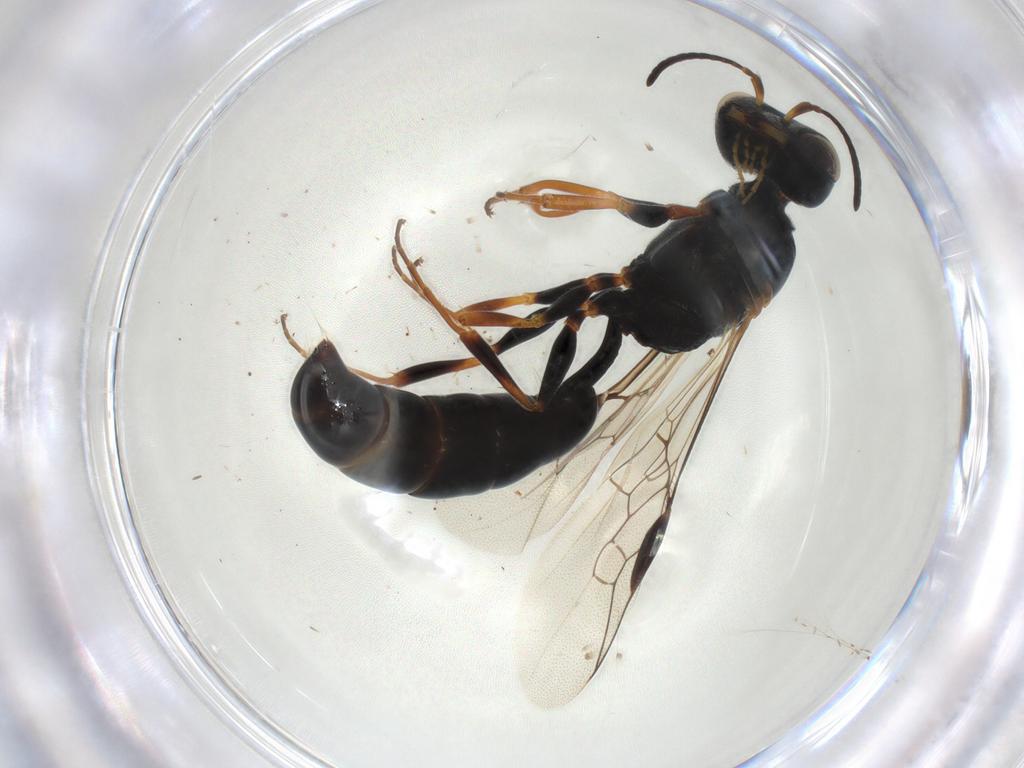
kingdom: Animalia
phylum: Arthropoda
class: Insecta
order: Hymenoptera
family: Pemphredonidae
